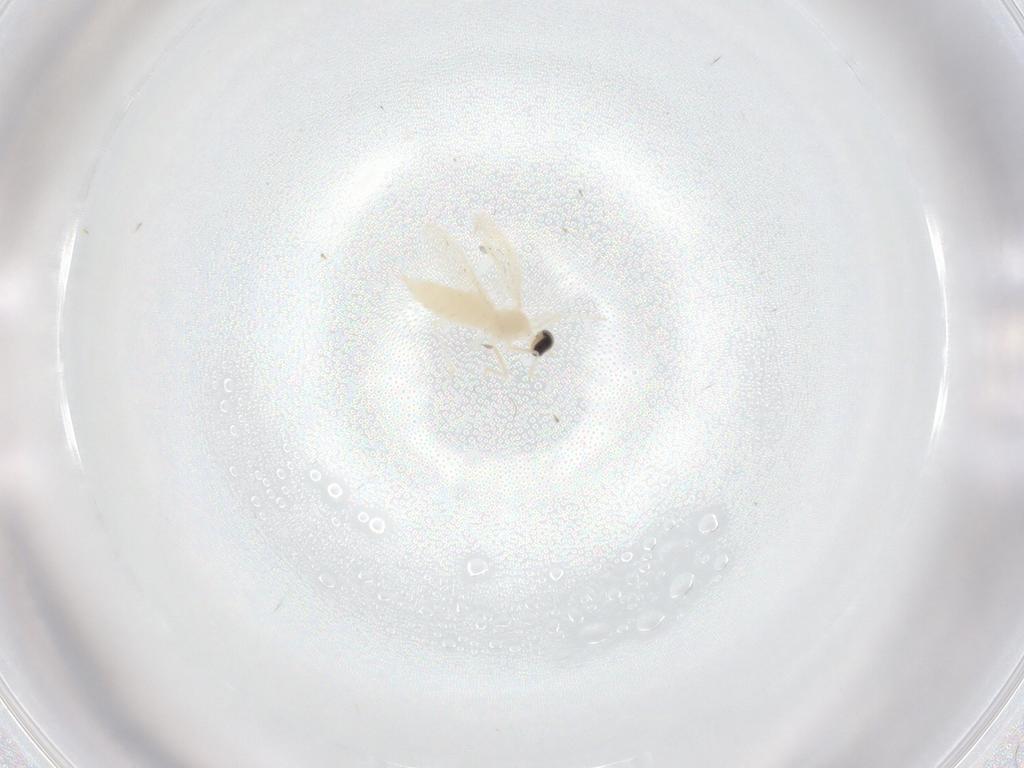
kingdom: Animalia
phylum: Arthropoda
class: Insecta
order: Diptera
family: Cecidomyiidae
